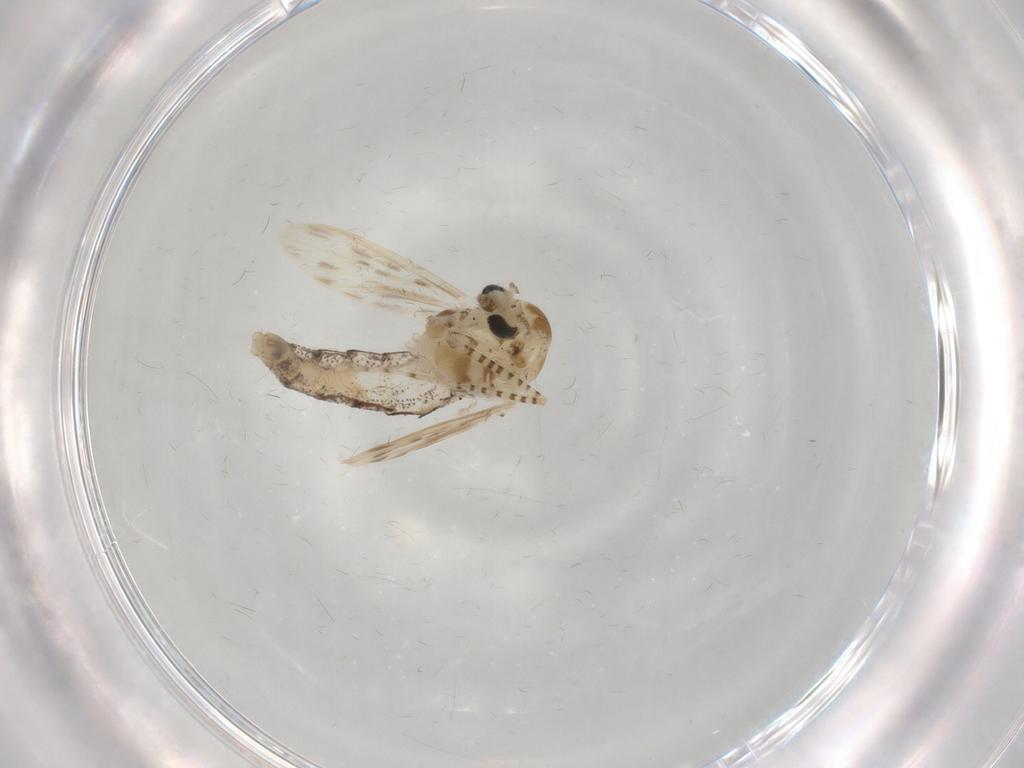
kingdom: Animalia
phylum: Arthropoda
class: Insecta
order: Diptera
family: Chaoboridae
